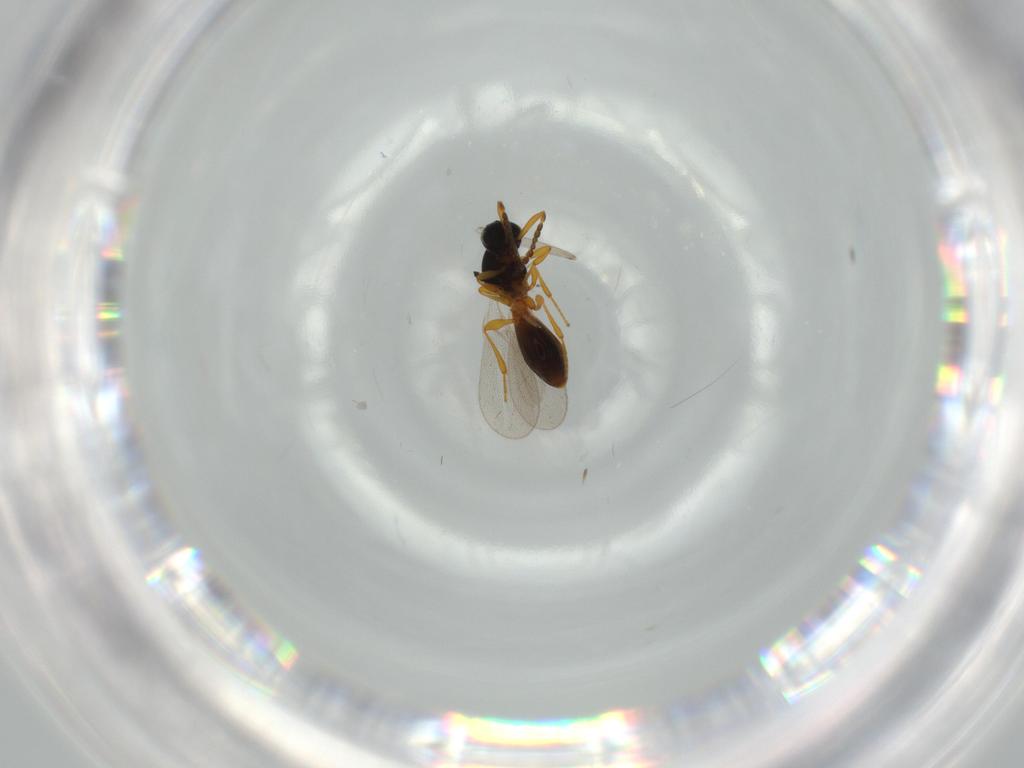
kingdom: Animalia
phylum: Arthropoda
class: Insecta
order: Hymenoptera
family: Platygastridae
